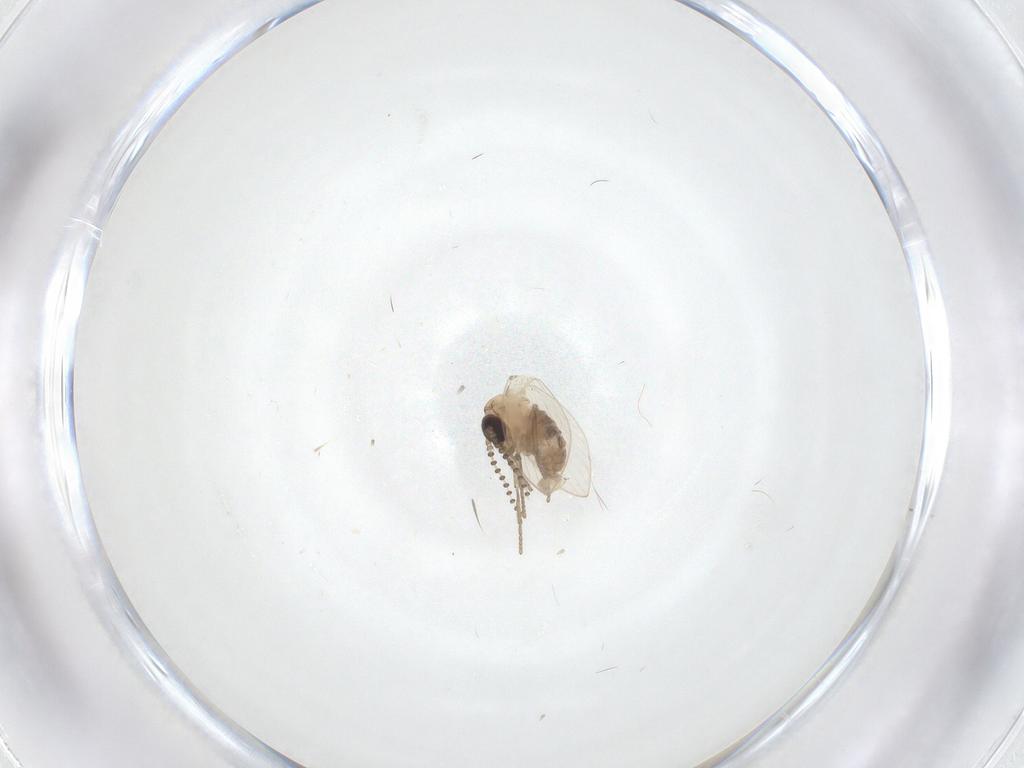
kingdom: Animalia
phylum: Arthropoda
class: Insecta
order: Diptera
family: Psychodidae
